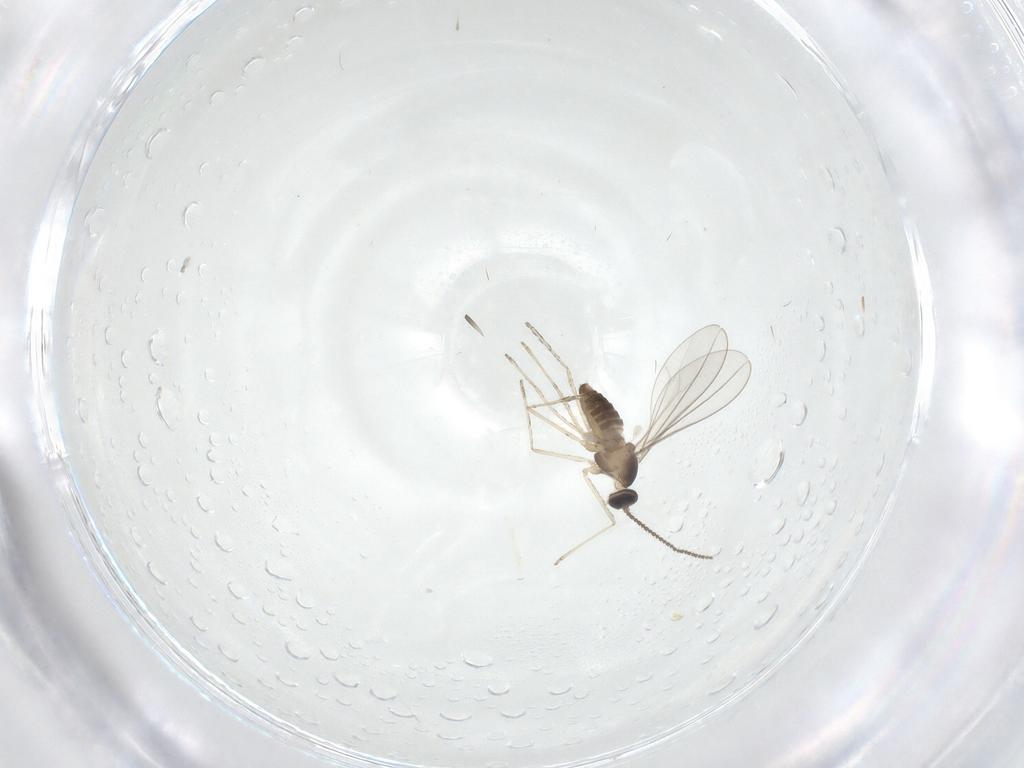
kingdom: Animalia
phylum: Arthropoda
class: Insecta
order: Diptera
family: Cecidomyiidae
